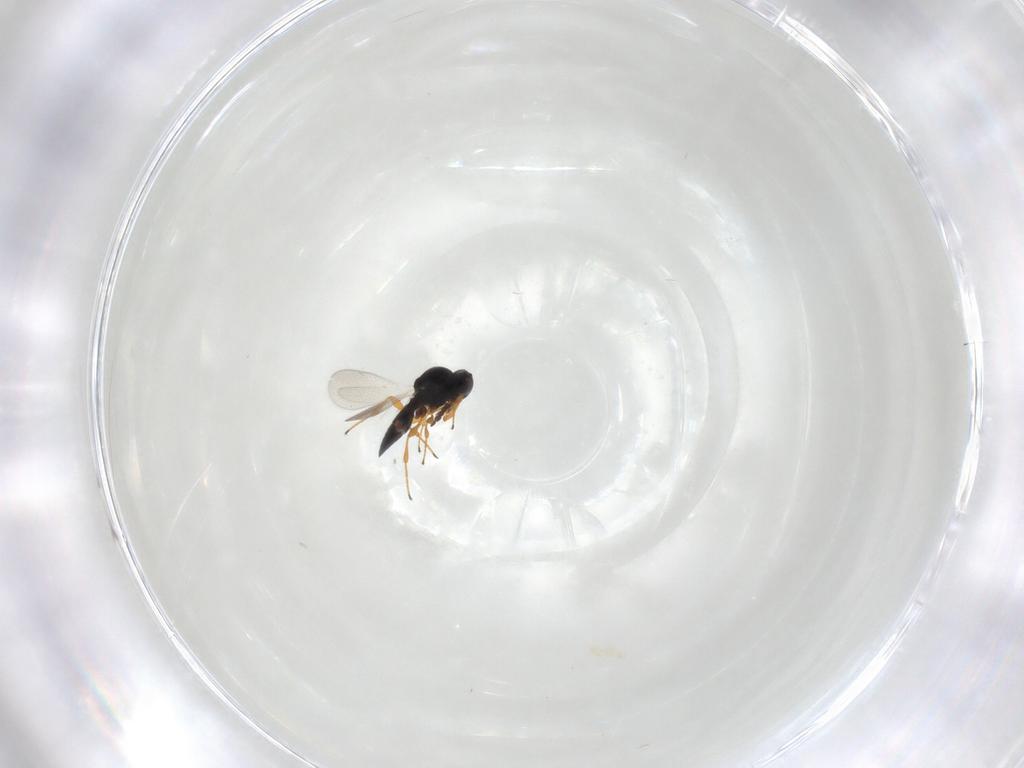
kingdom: Animalia
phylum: Arthropoda
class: Insecta
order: Hymenoptera
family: Platygastridae
